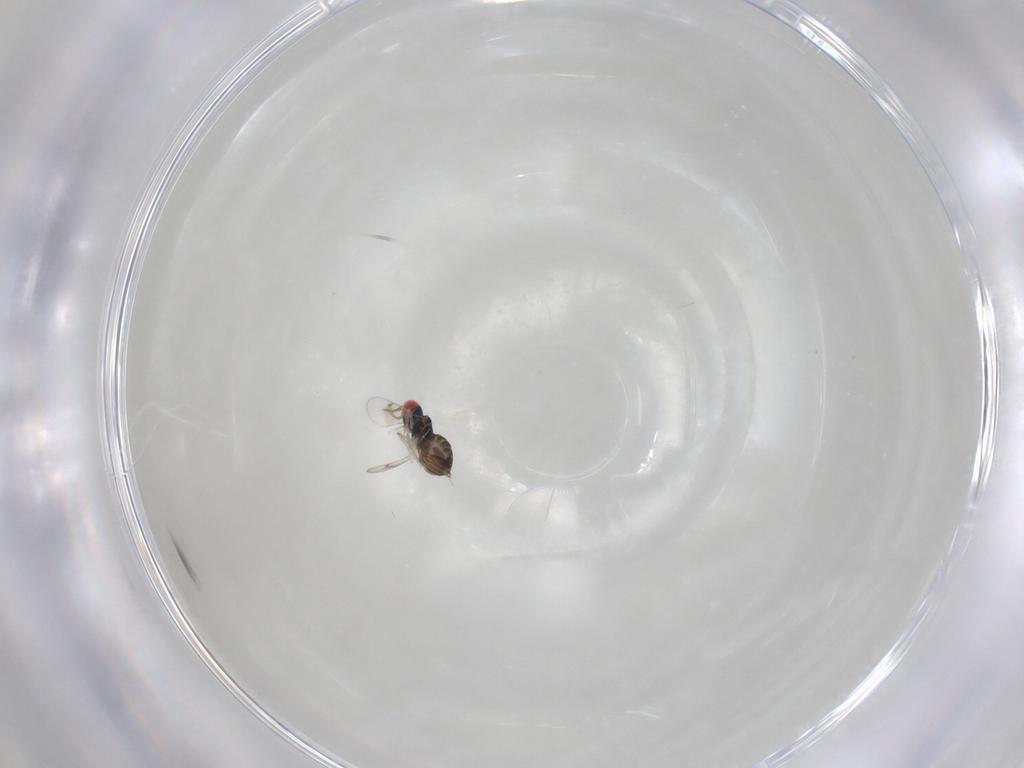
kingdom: Animalia
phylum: Arthropoda
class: Insecta
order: Hymenoptera
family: Eulophidae
